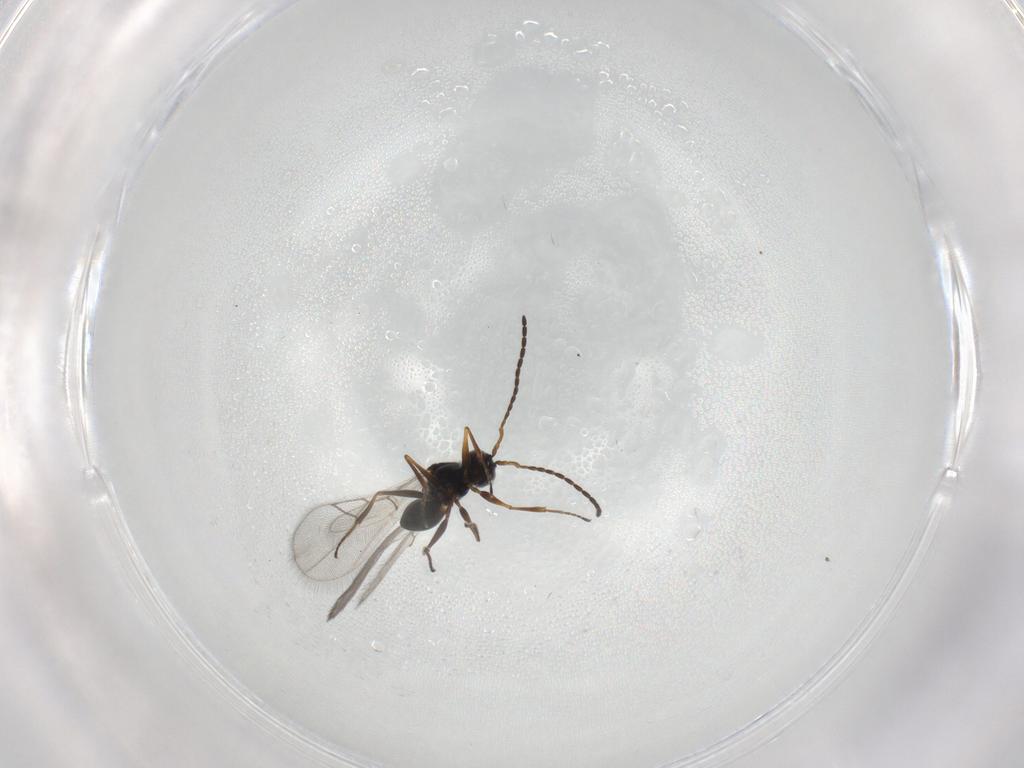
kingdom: Animalia
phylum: Arthropoda
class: Insecta
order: Hymenoptera
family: Figitidae
